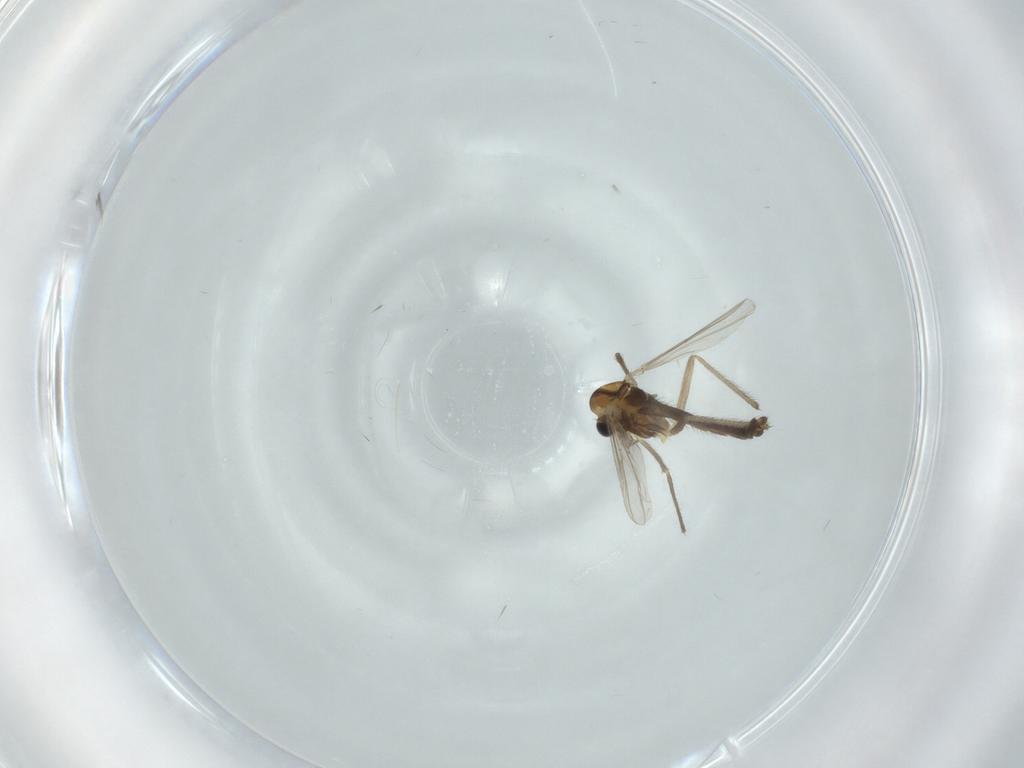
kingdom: Animalia
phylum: Arthropoda
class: Insecta
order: Diptera
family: Chironomidae
